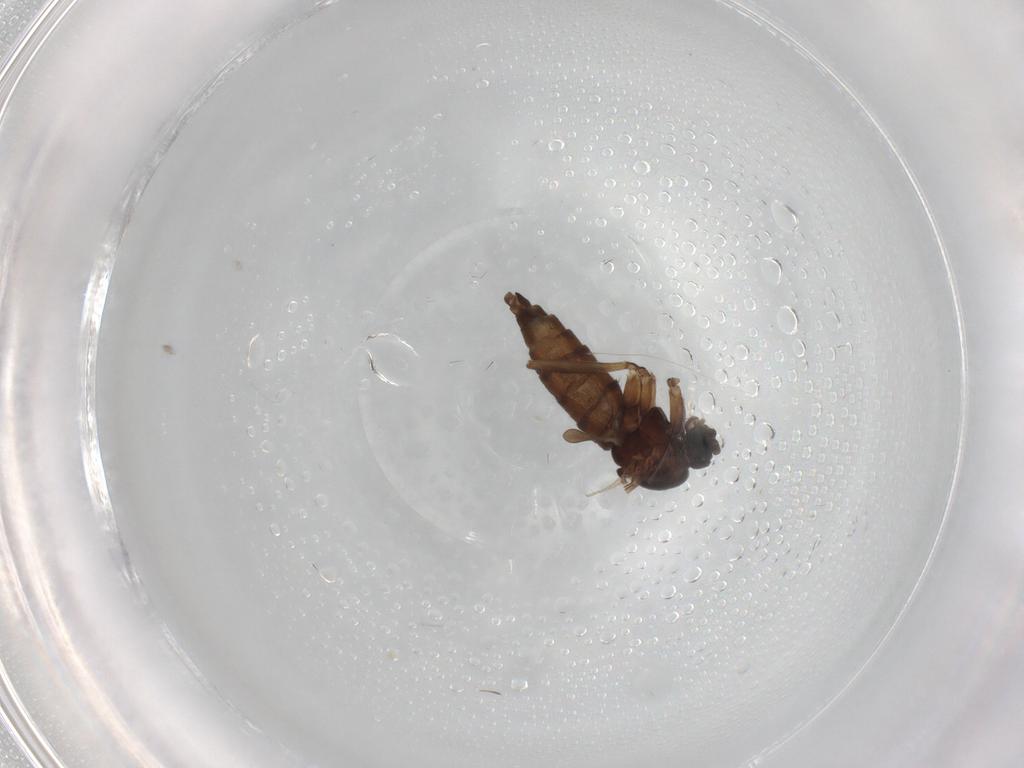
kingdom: Animalia
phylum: Arthropoda
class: Insecta
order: Diptera
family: Sciaridae
